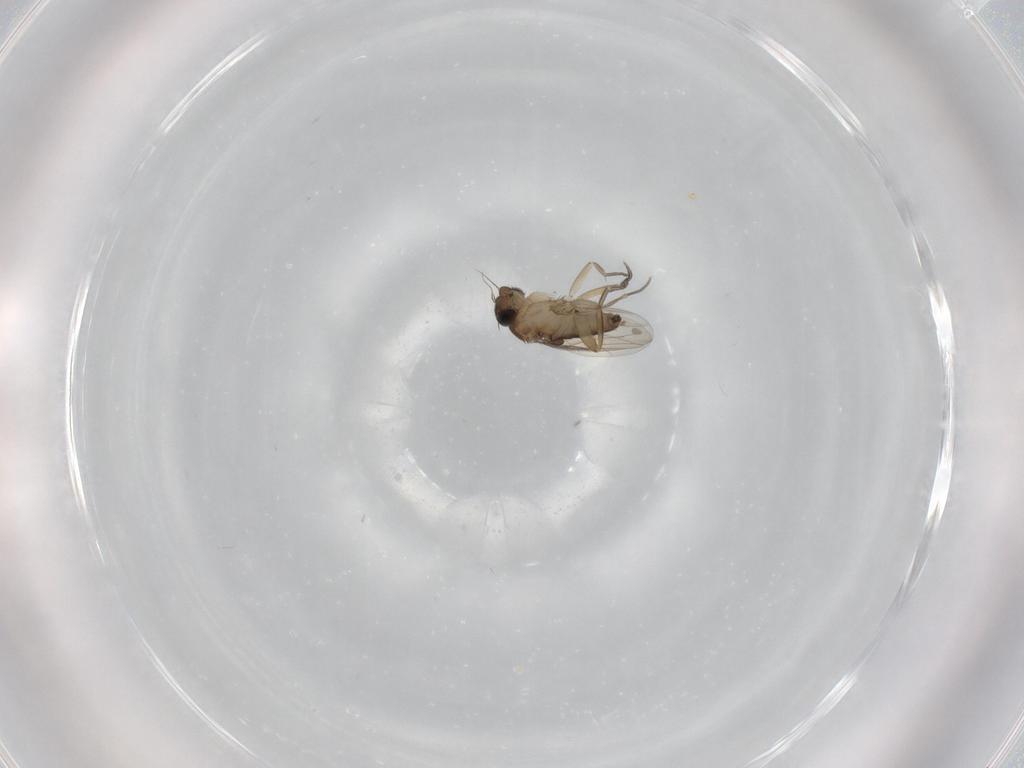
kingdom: Animalia
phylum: Arthropoda
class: Insecta
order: Diptera
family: Phoridae
